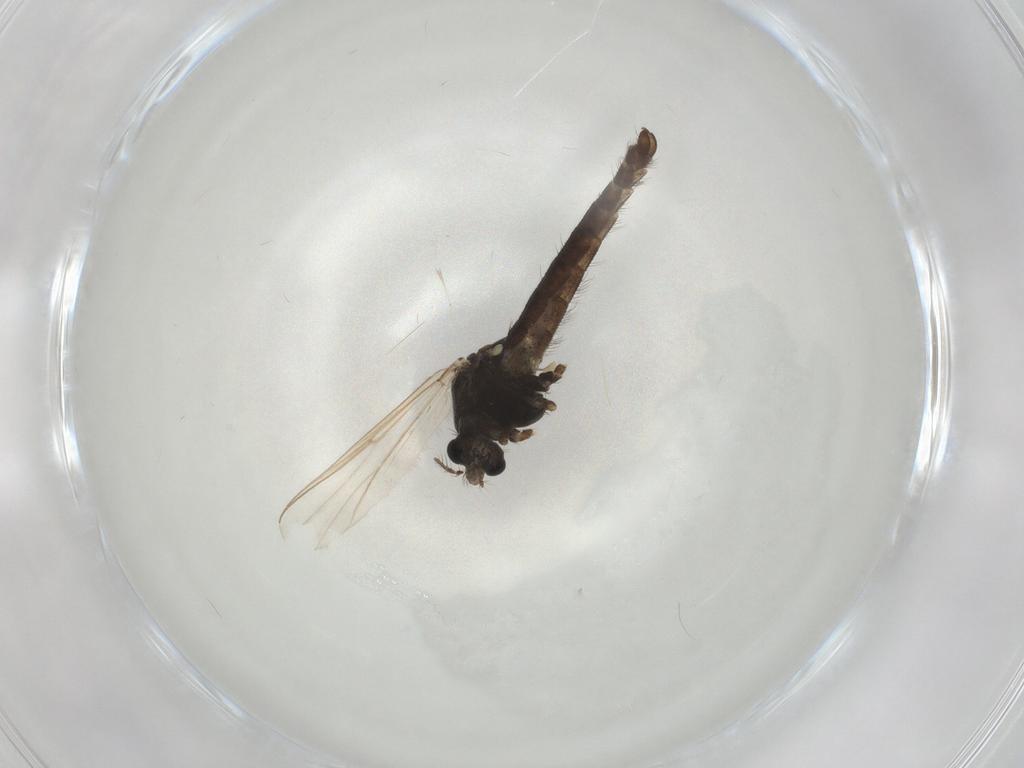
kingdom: Animalia
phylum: Arthropoda
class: Insecta
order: Diptera
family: Chironomidae
